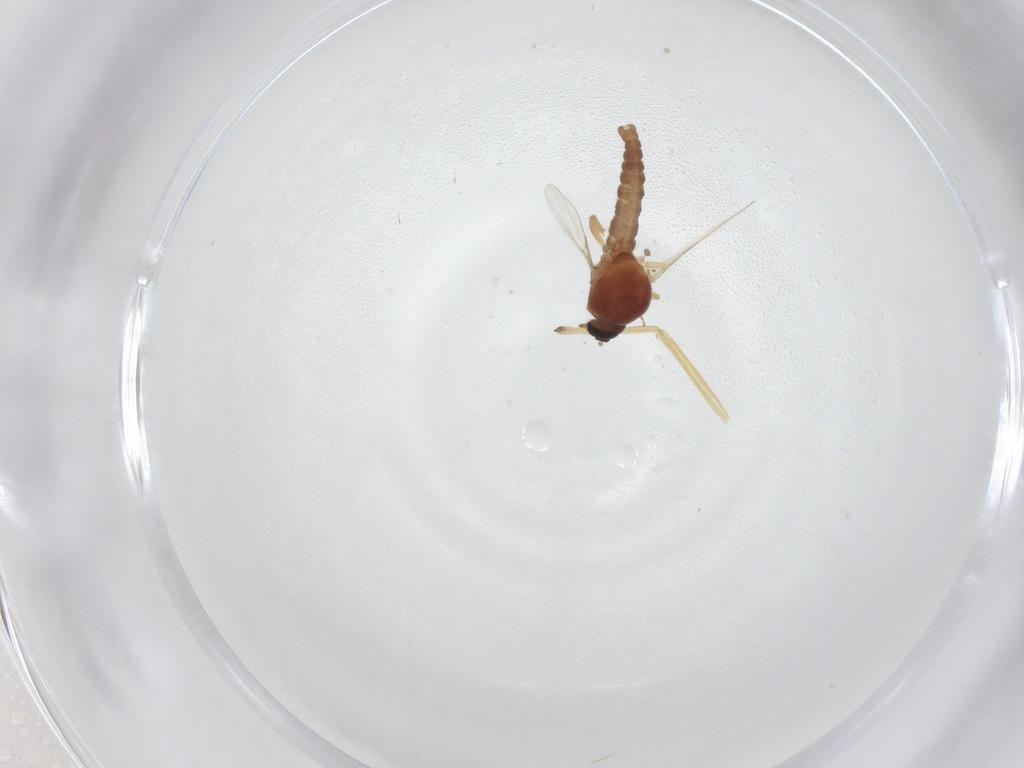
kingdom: Animalia
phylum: Arthropoda
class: Insecta
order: Diptera
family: Ceratopogonidae
